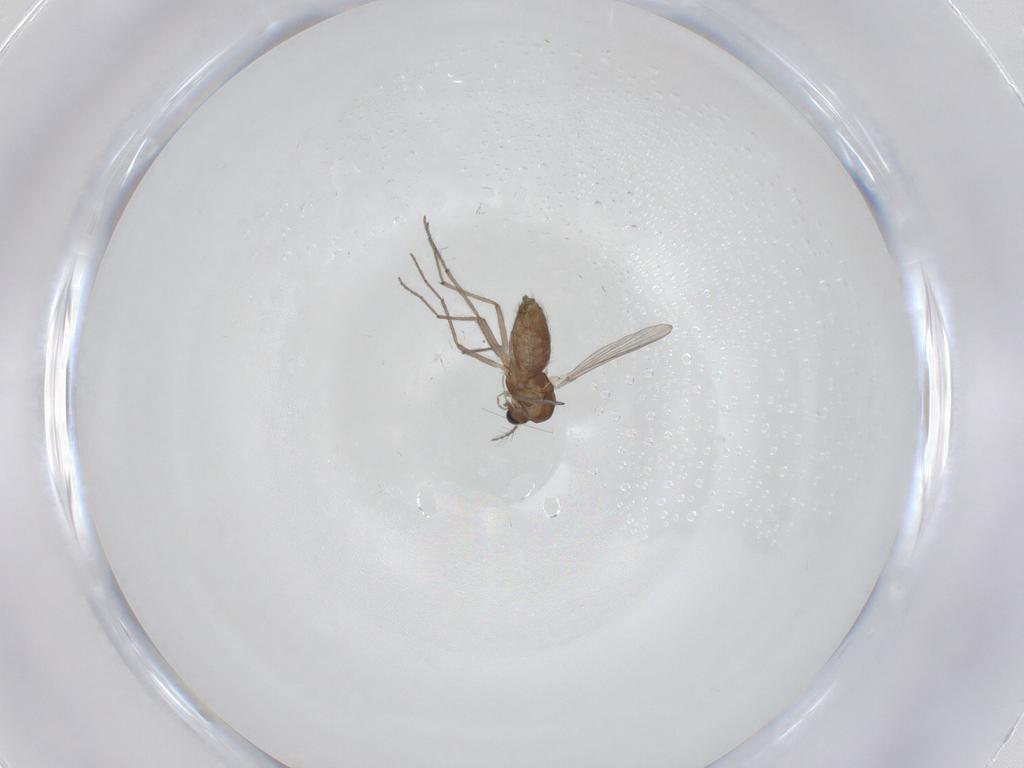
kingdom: Animalia
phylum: Arthropoda
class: Insecta
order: Diptera
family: Chironomidae
